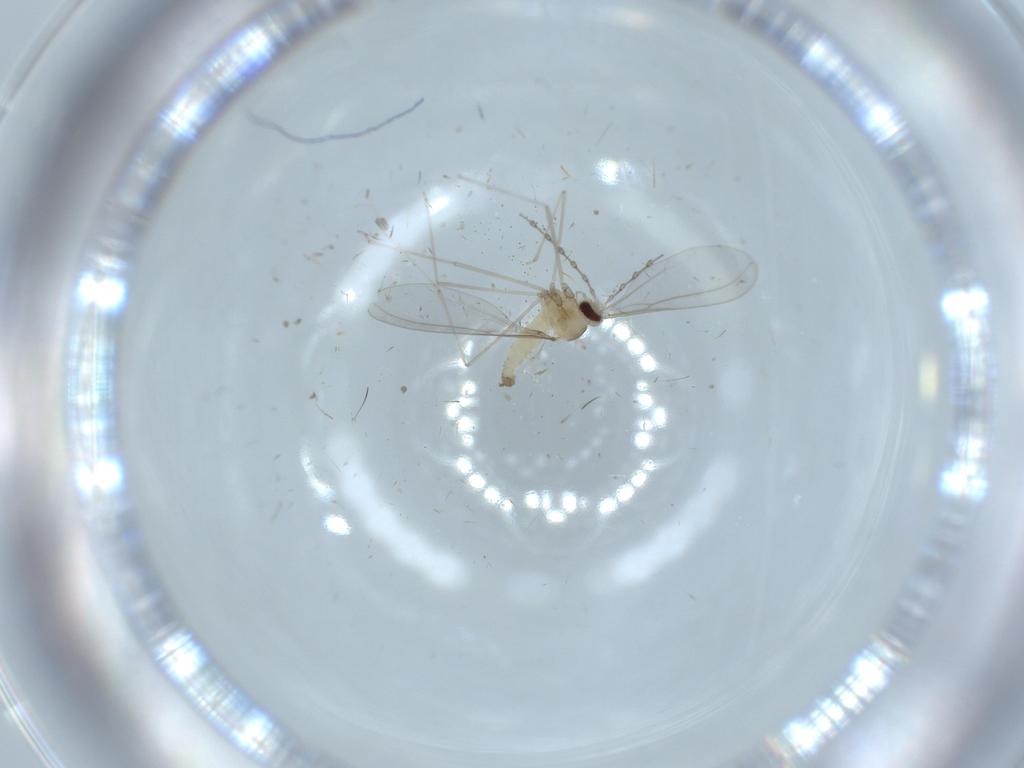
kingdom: Animalia
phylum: Arthropoda
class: Insecta
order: Diptera
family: Cecidomyiidae
